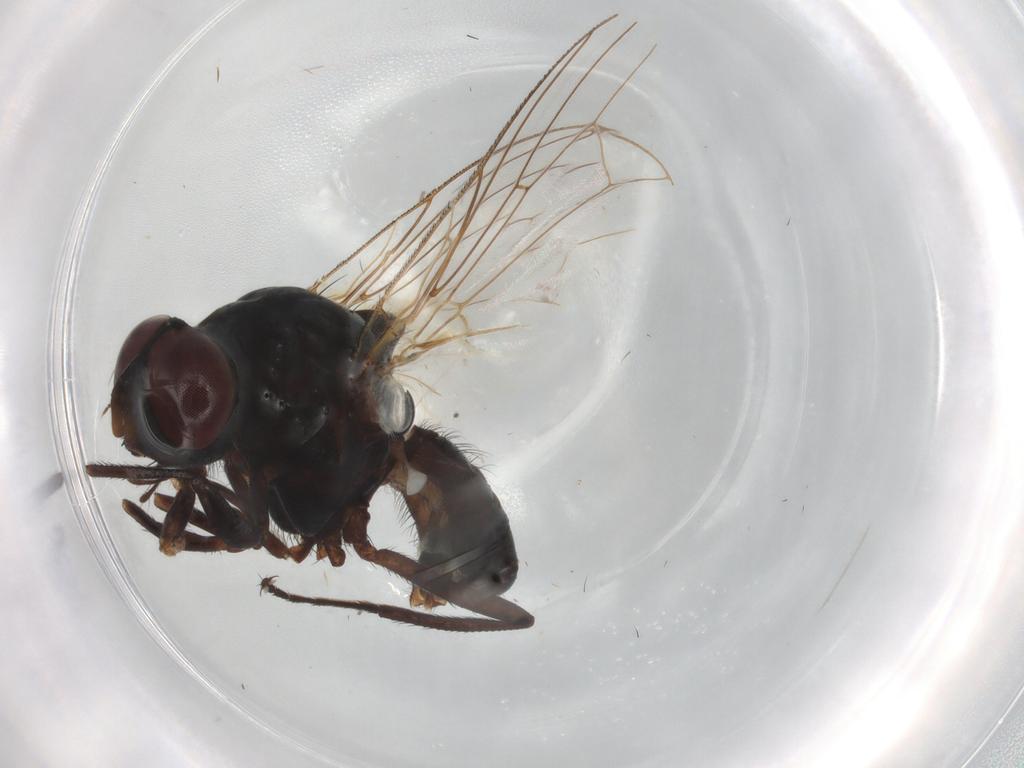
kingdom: Animalia
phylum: Arthropoda
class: Insecta
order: Diptera
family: Anthomyiidae
